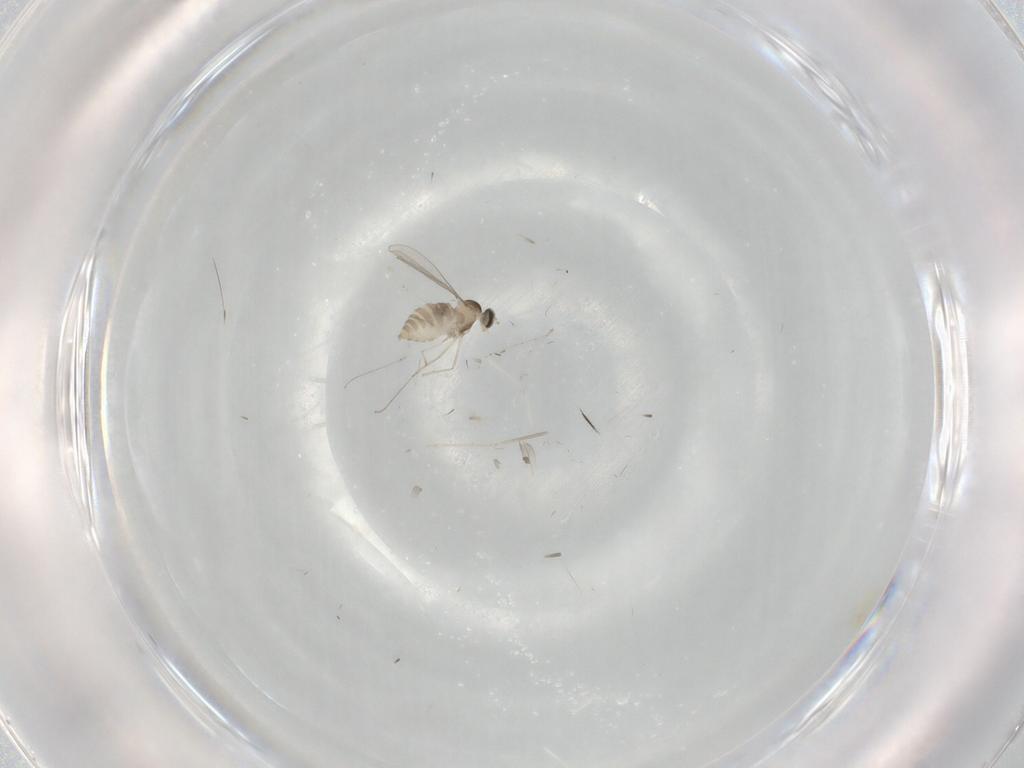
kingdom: Animalia
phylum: Arthropoda
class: Insecta
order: Diptera
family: Cecidomyiidae
